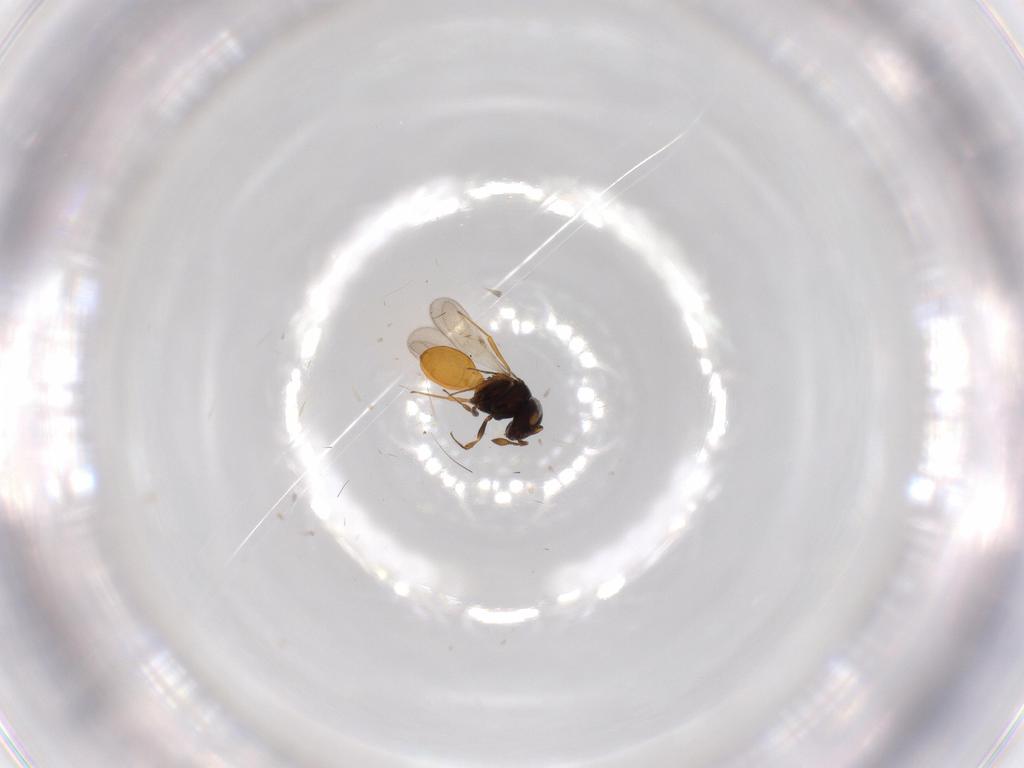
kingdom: Animalia
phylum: Arthropoda
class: Insecta
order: Hymenoptera
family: Scelionidae
